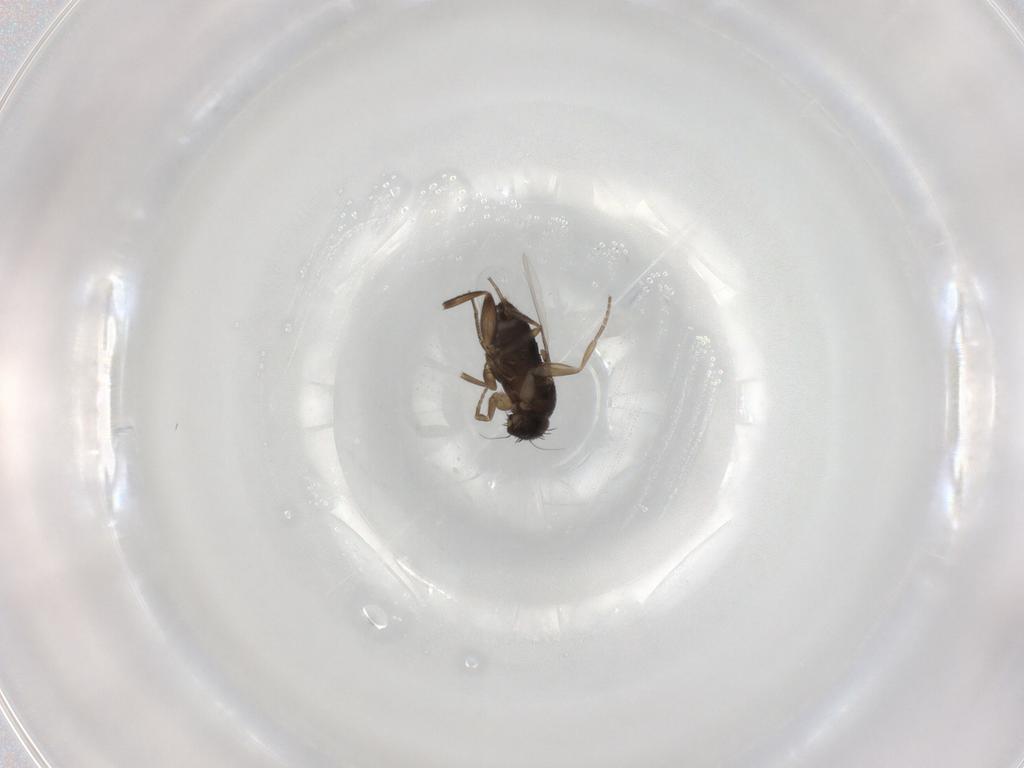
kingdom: Animalia
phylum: Arthropoda
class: Insecta
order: Diptera
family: Phoridae
